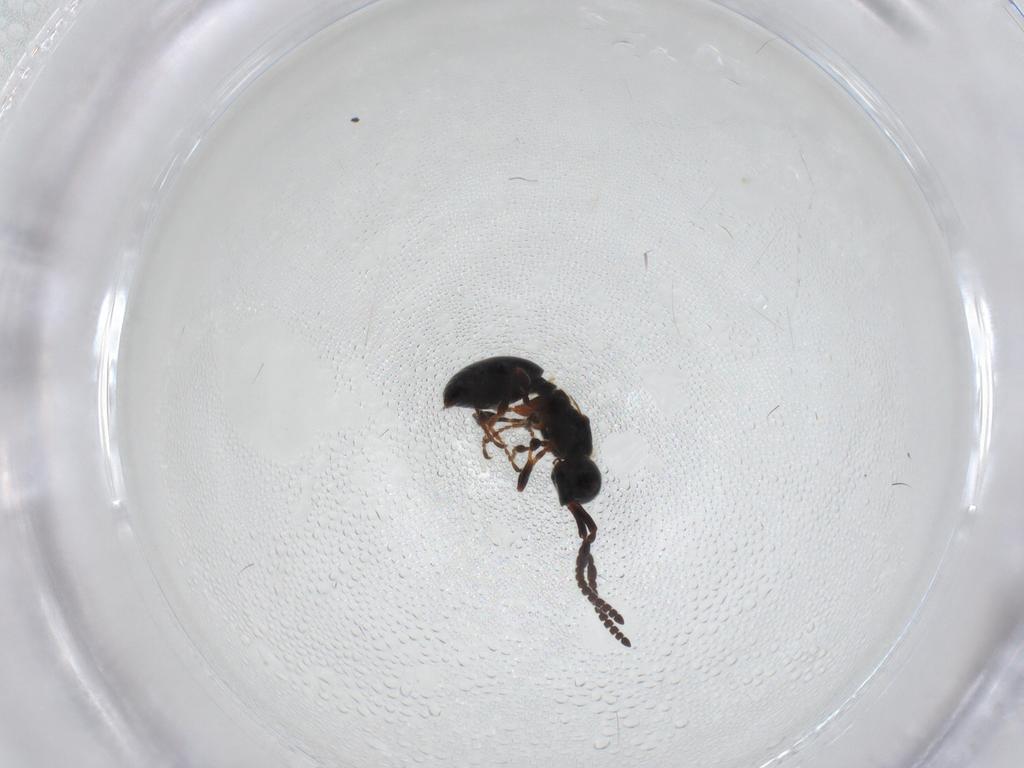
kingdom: Animalia
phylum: Arthropoda
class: Insecta
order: Hymenoptera
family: Diapriidae
